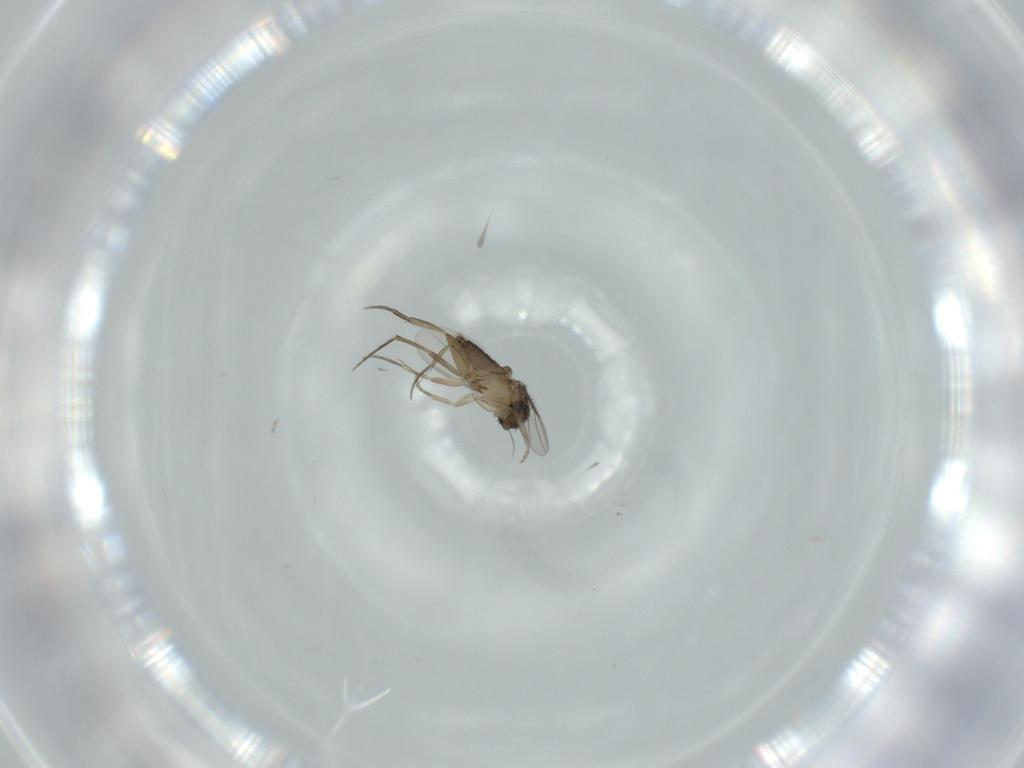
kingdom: Animalia
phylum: Arthropoda
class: Insecta
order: Diptera
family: Phoridae
